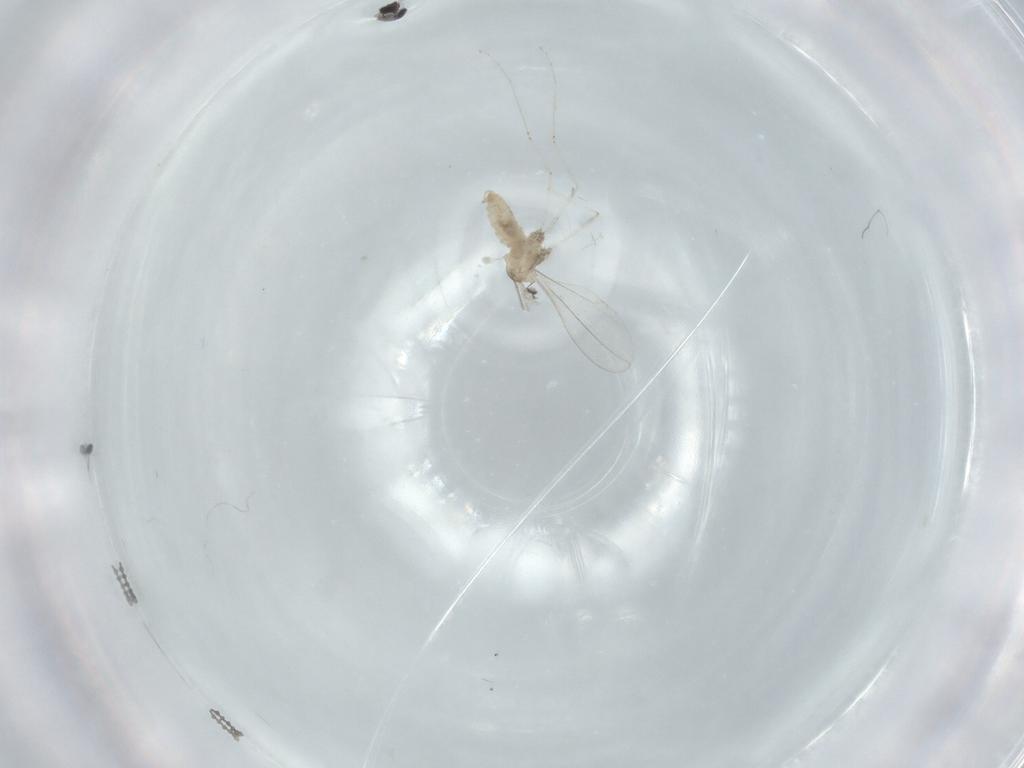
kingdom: Animalia
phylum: Arthropoda
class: Insecta
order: Diptera
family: Cecidomyiidae
